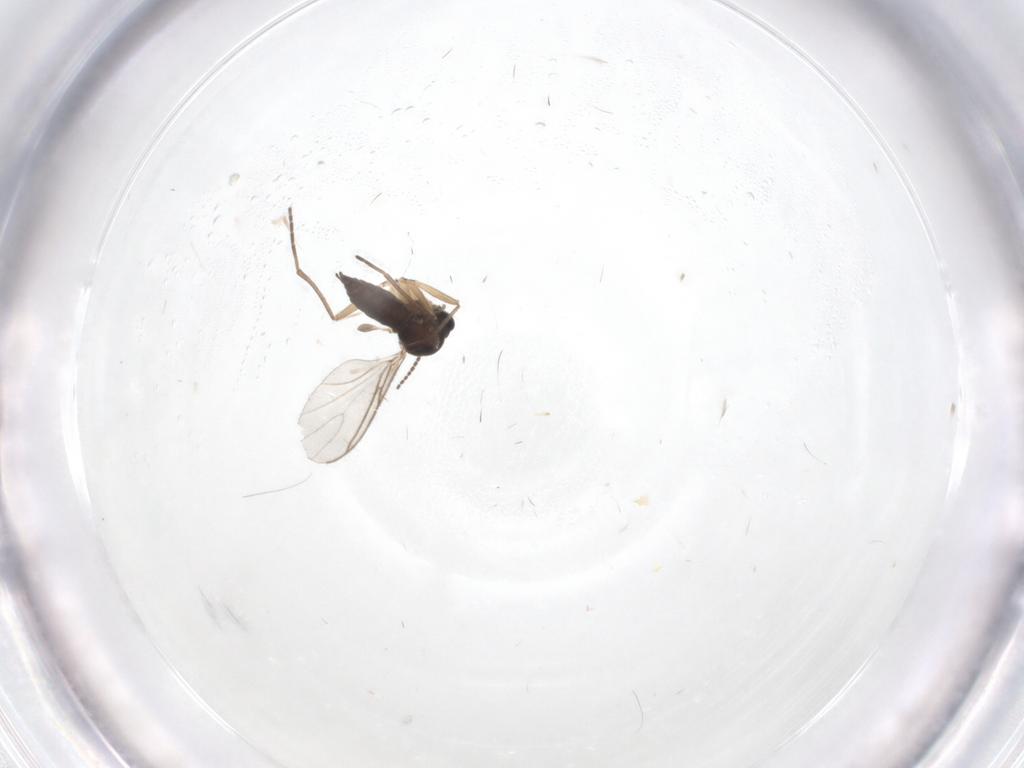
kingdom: Animalia
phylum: Arthropoda
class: Insecta
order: Diptera
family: Sciaridae
